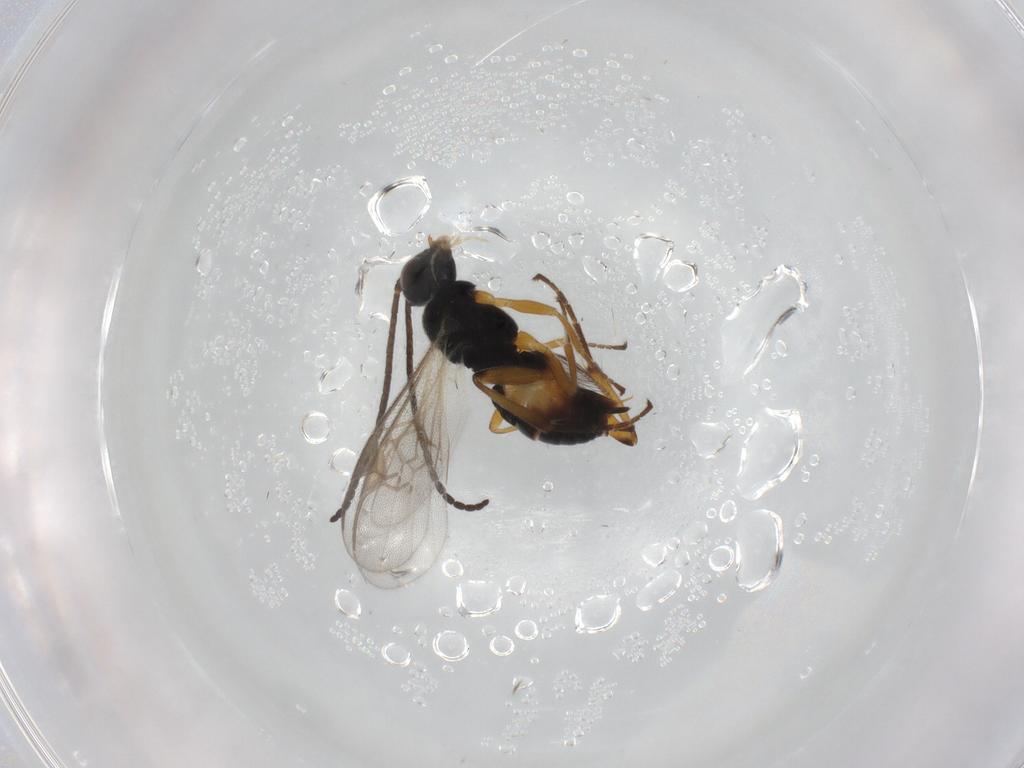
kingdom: Animalia
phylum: Arthropoda
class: Insecta
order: Hymenoptera
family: Braconidae
